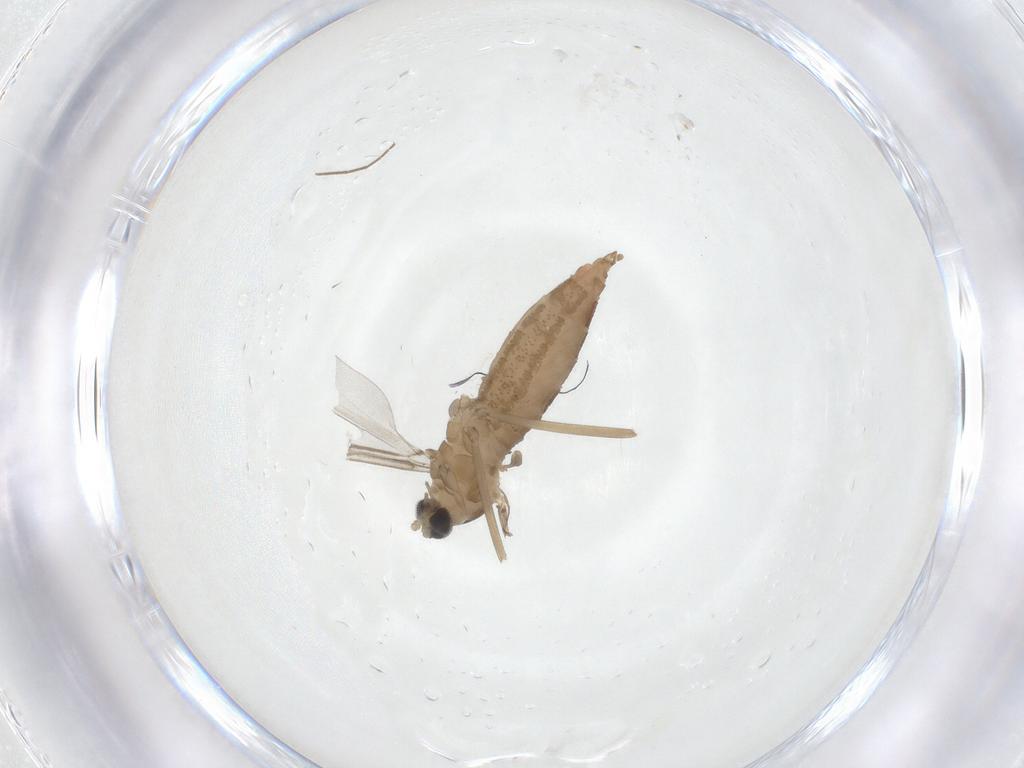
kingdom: Animalia
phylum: Arthropoda
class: Insecta
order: Diptera
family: Cecidomyiidae
